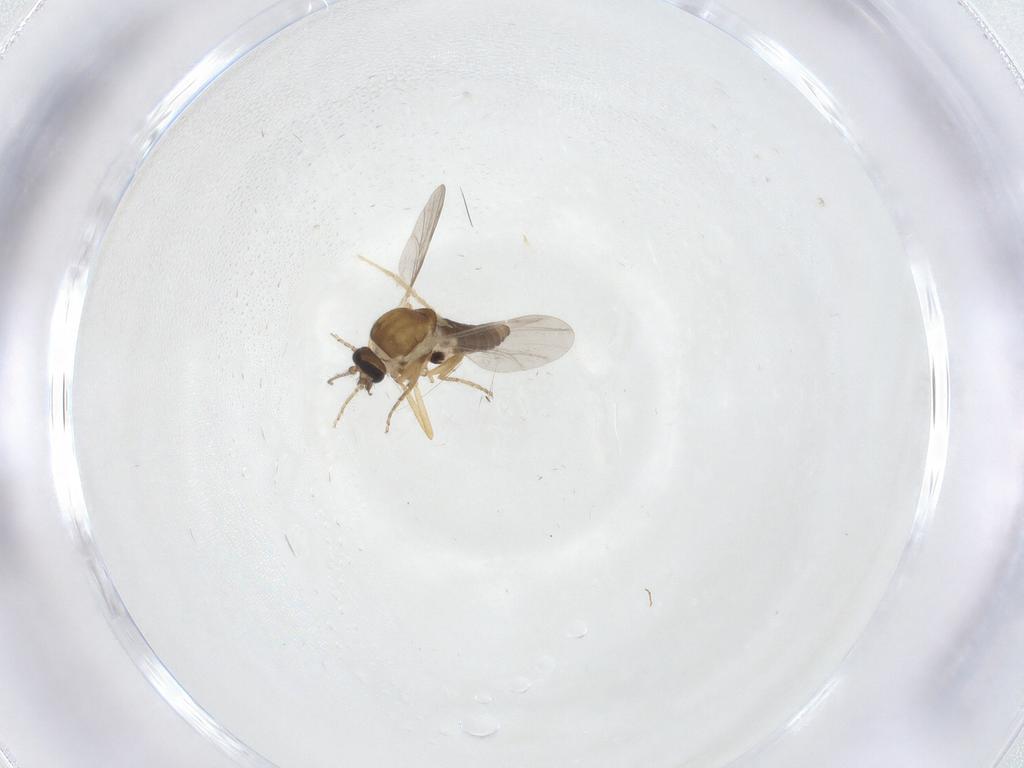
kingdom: Animalia
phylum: Arthropoda
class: Insecta
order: Diptera
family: Ceratopogonidae
